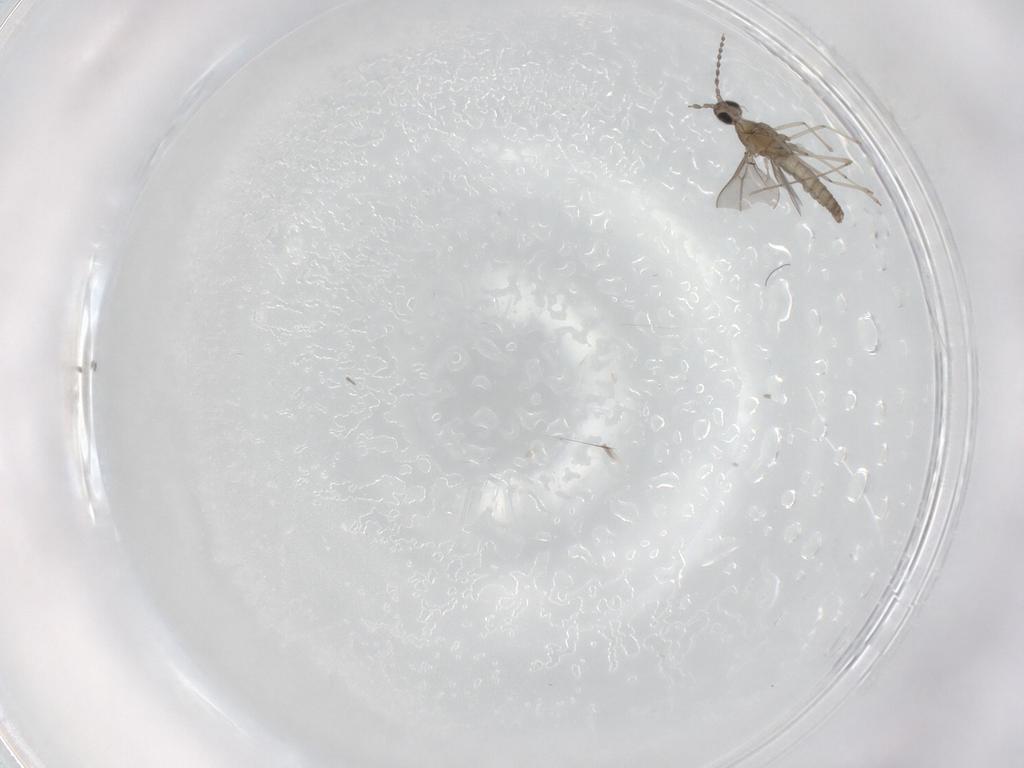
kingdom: Animalia
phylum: Arthropoda
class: Insecta
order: Diptera
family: Cecidomyiidae
